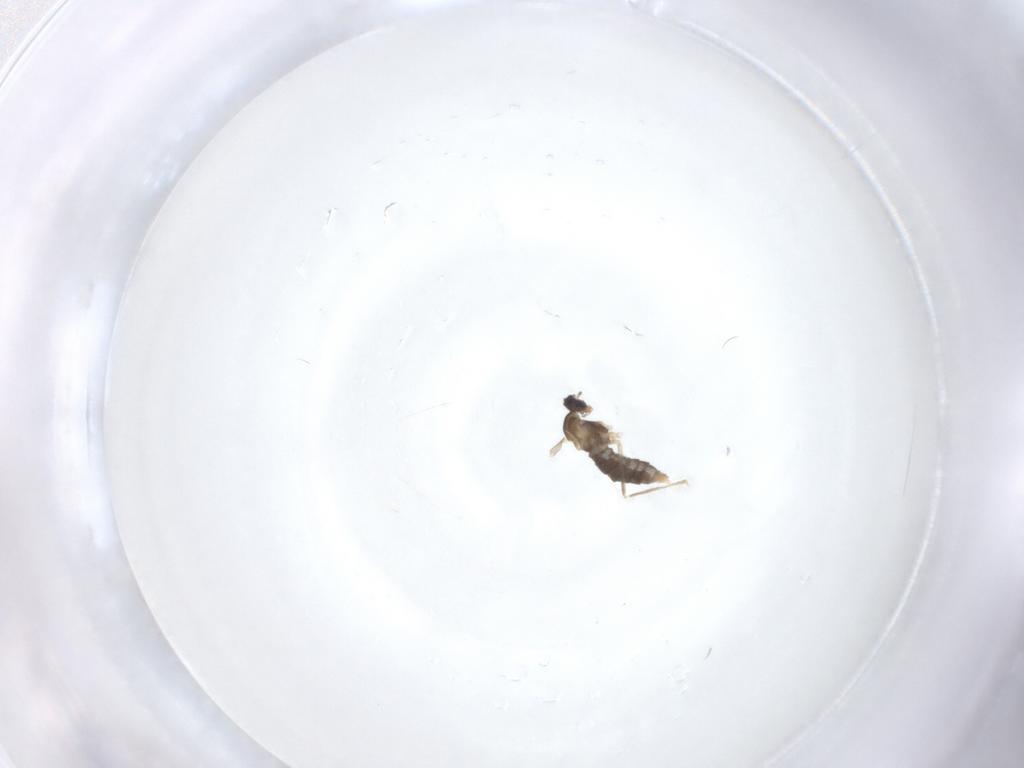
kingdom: Animalia
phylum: Arthropoda
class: Insecta
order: Diptera
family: Cecidomyiidae
